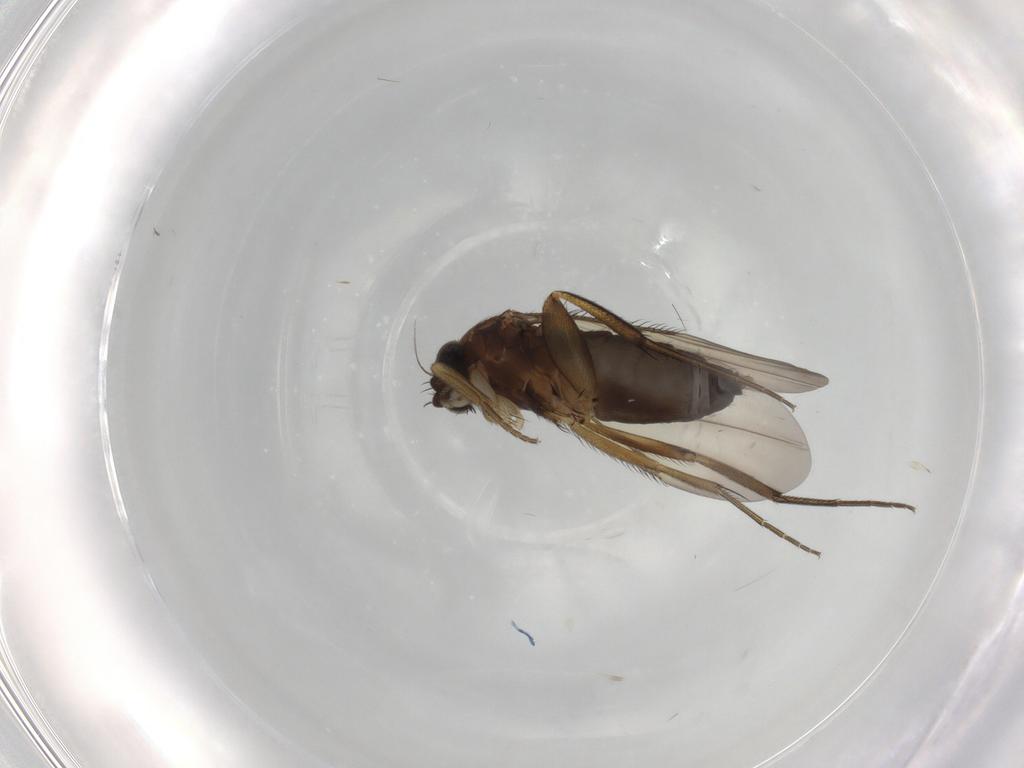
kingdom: Animalia
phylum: Arthropoda
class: Insecta
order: Diptera
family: Phoridae
